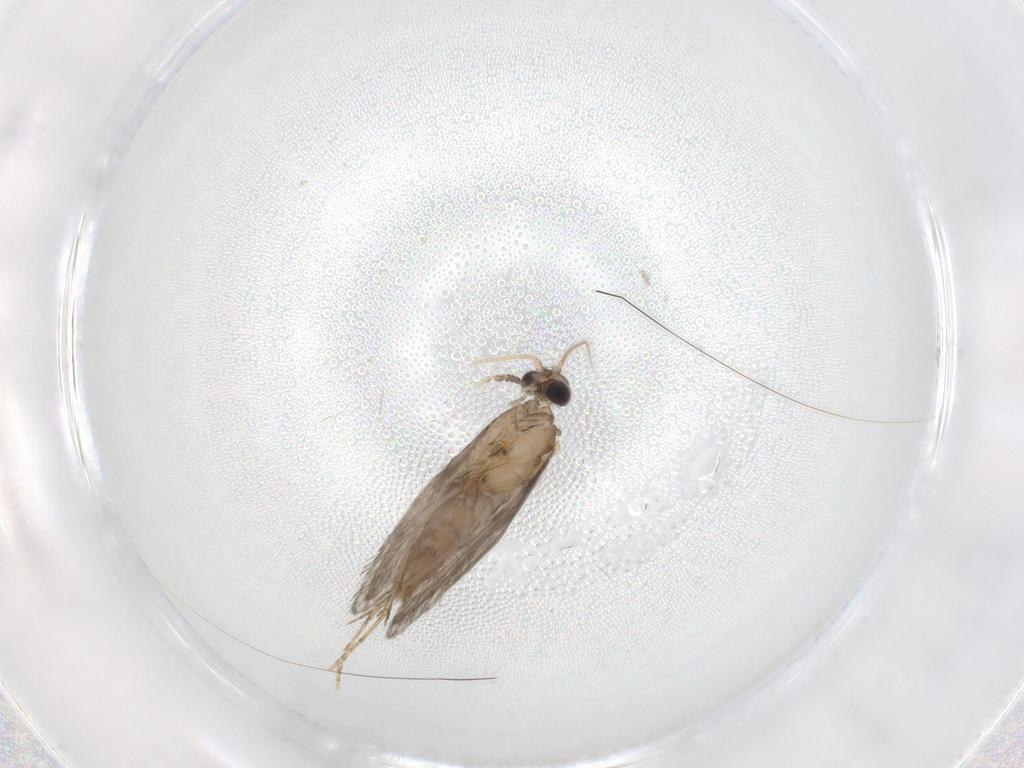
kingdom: Animalia
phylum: Arthropoda
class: Insecta
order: Trichoptera
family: Hydroptilidae
